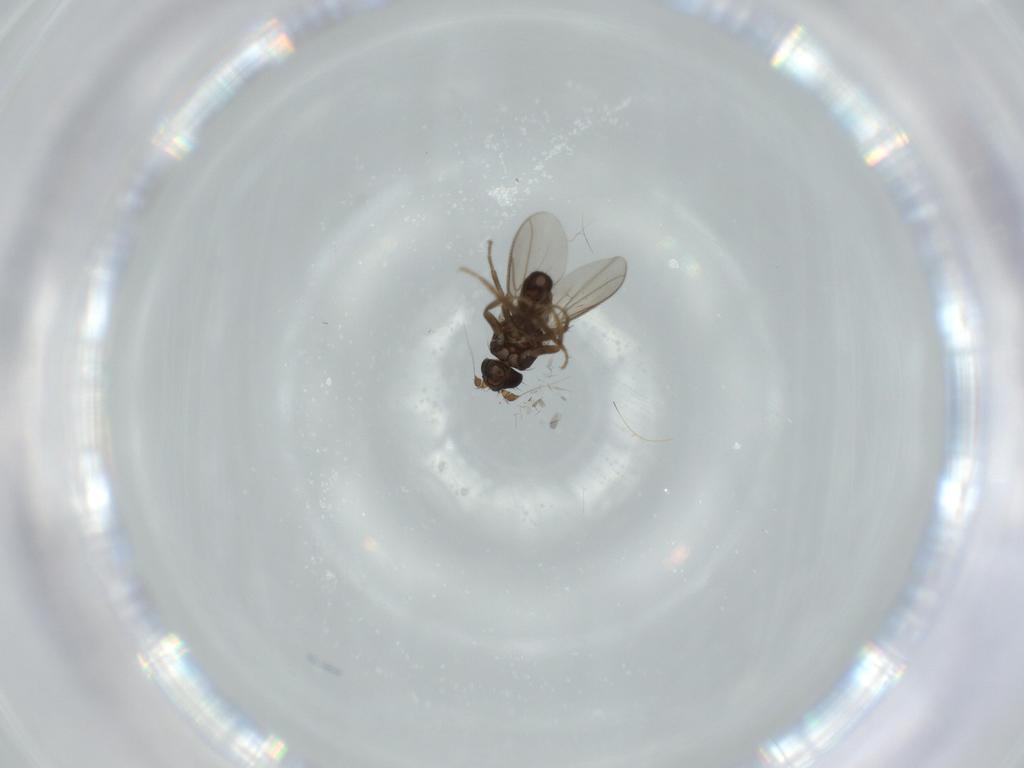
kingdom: Animalia
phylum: Arthropoda
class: Insecta
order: Diptera
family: Sphaeroceridae
